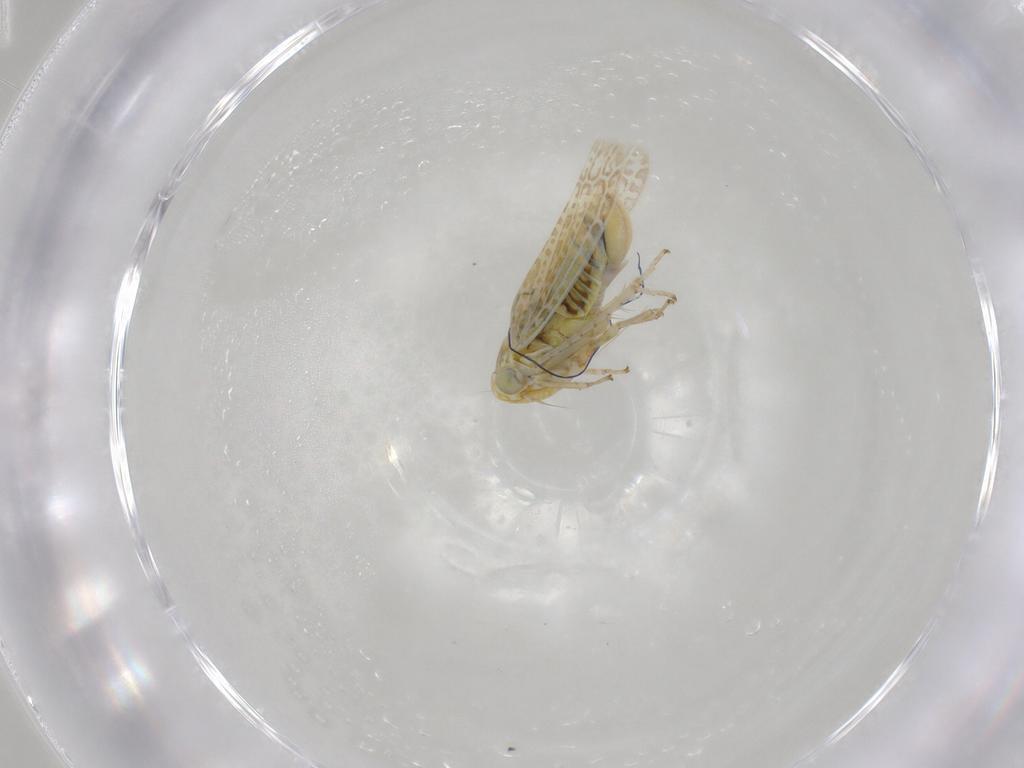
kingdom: Animalia
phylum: Arthropoda
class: Insecta
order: Hemiptera
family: Cicadellidae
